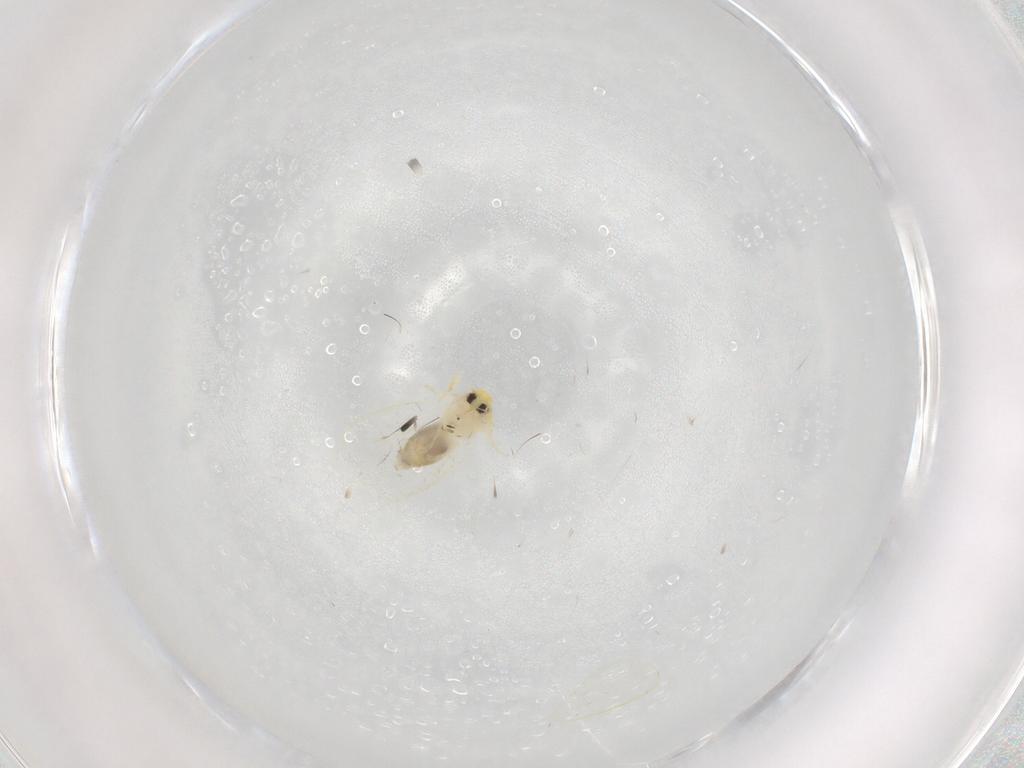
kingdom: Animalia
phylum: Arthropoda
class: Insecta
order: Hemiptera
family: Aleyrodidae
